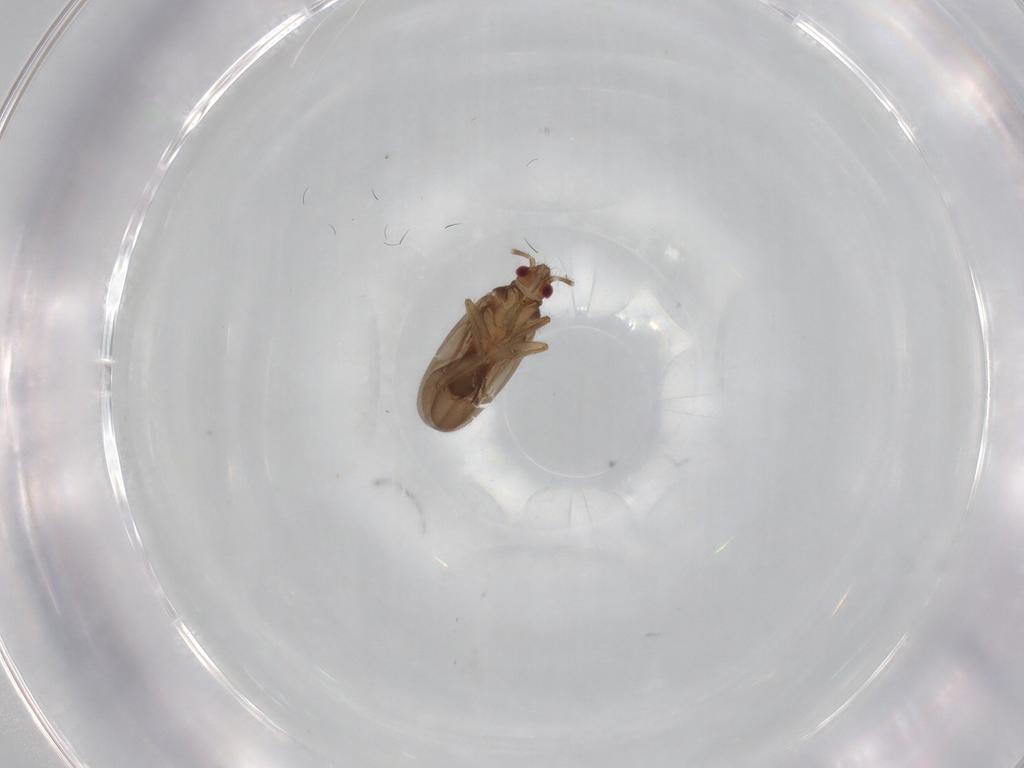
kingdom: Animalia
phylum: Arthropoda
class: Insecta
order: Hemiptera
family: Ceratocombidae
